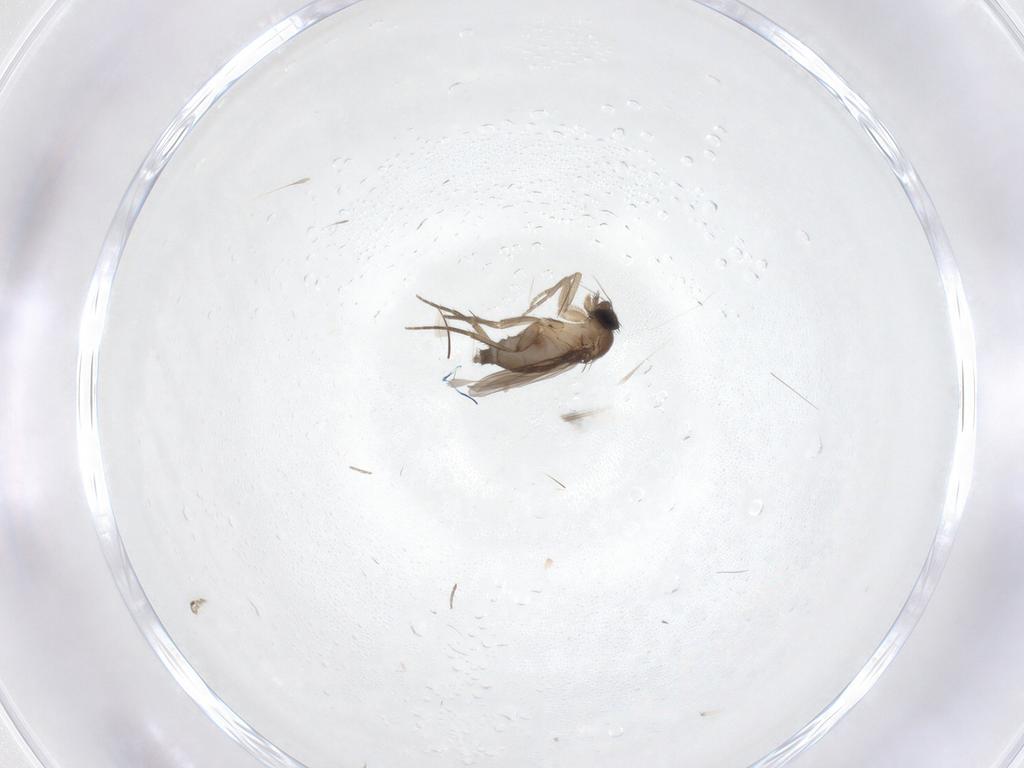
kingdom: Animalia
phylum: Arthropoda
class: Insecta
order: Diptera
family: Phoridae
